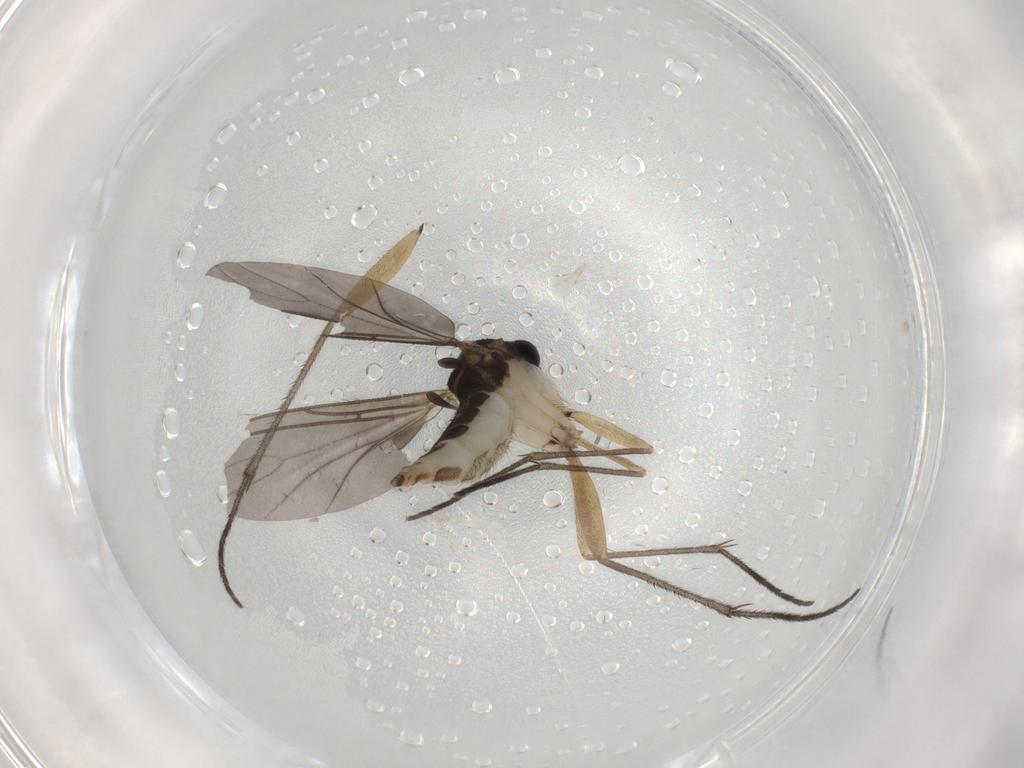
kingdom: Animalia
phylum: Arthropoda
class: Insecta
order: Diptera
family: Sciaridae
